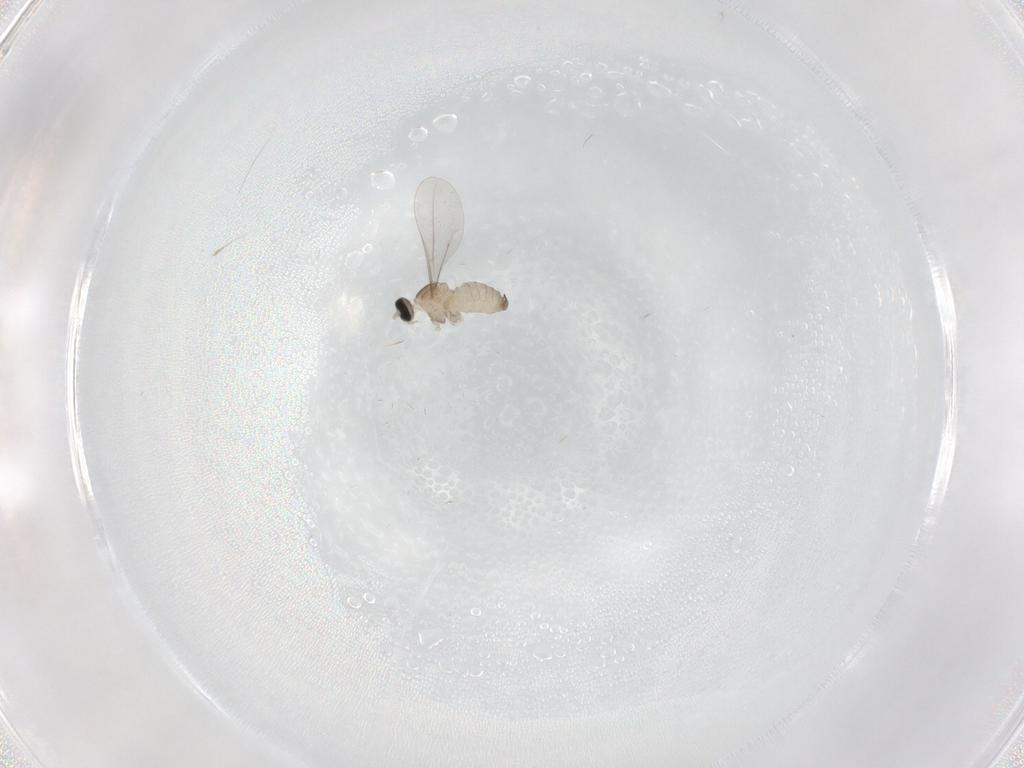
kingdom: Animalia
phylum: Arthropoda
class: Insecta
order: Diptera
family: Cecidomyiidae
